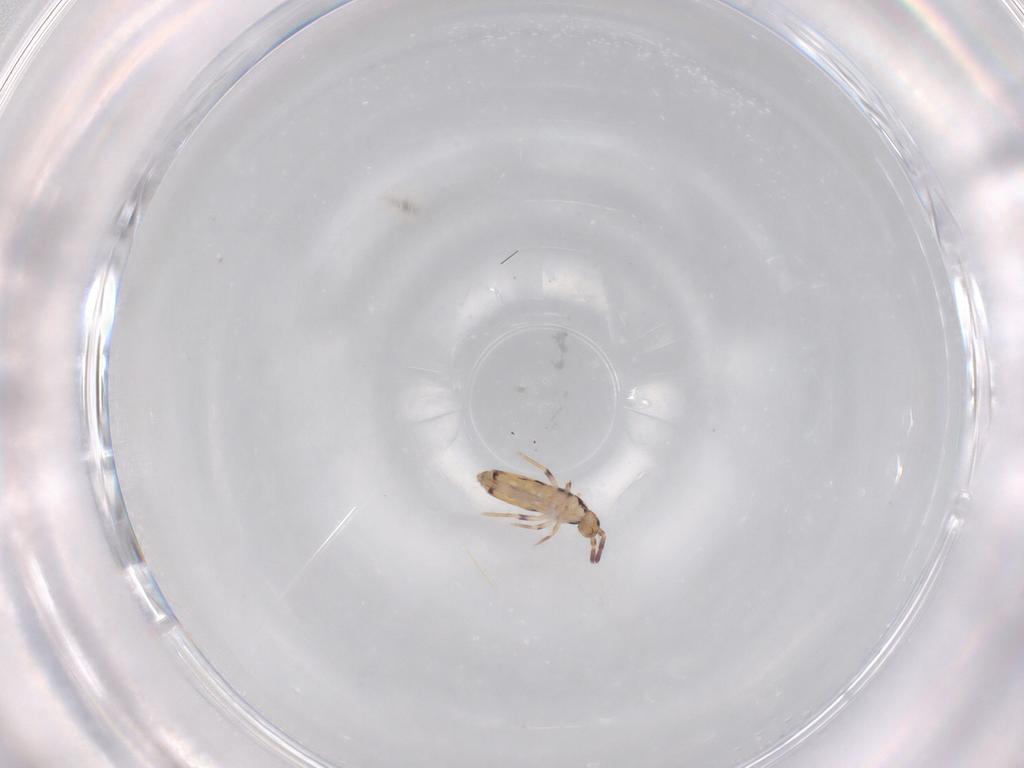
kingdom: Animalia
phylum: Arthropoda
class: Collembola
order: Entomobryomorpha
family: Entomobryidae
